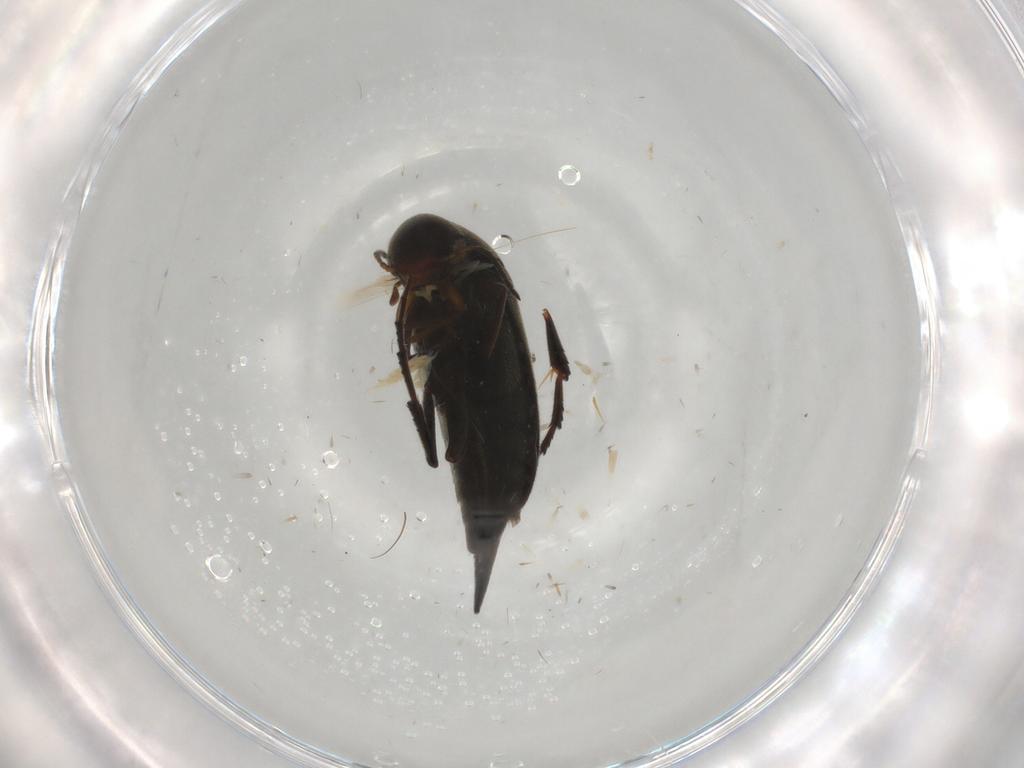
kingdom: Animalia
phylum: Arthropoda
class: Insecta
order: Coleoptera
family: Mordellidae
